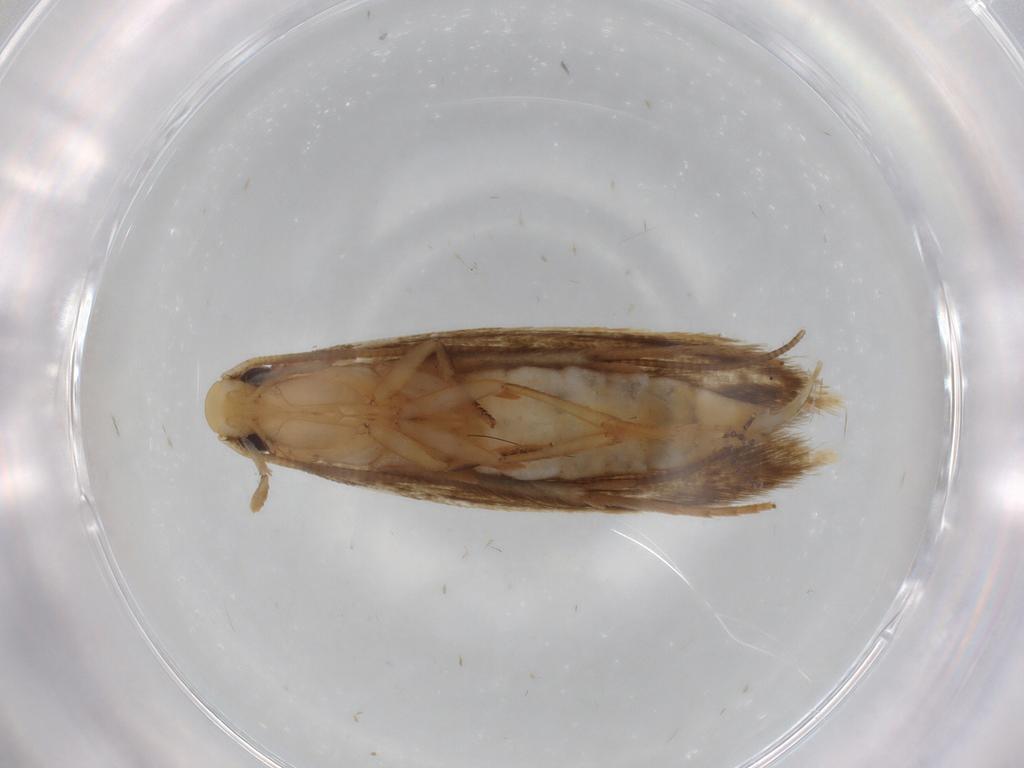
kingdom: Animalia
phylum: Arthropoda
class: Insecta
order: Lepidoptera
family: Tineidae
